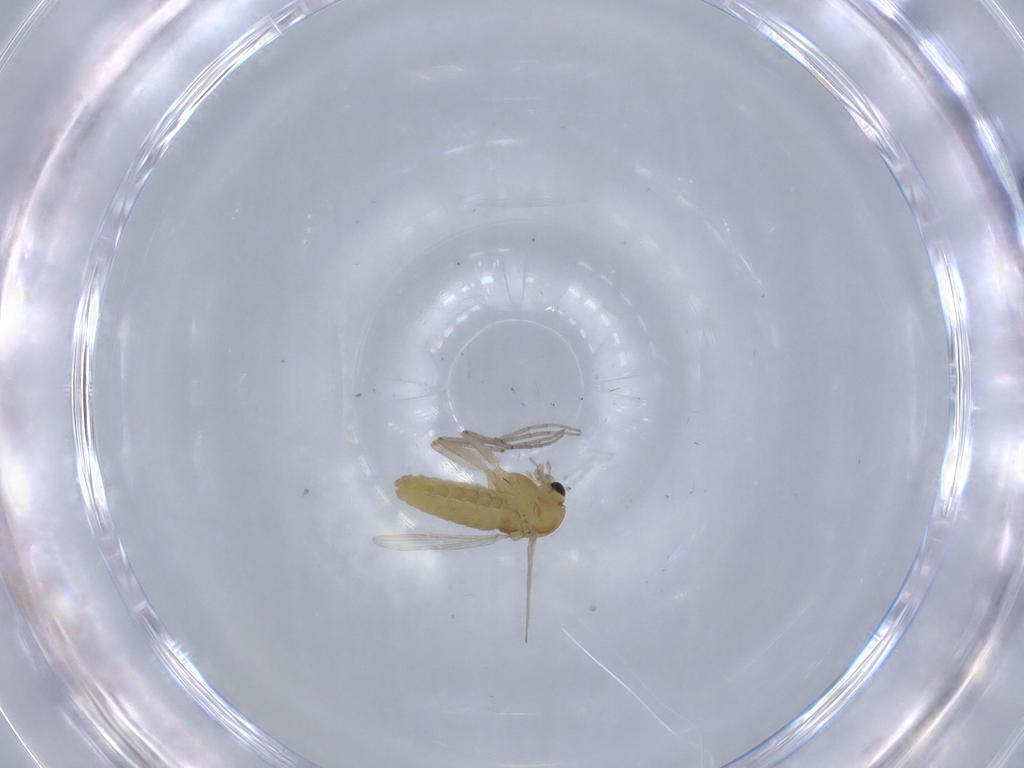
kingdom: Animalia
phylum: Arthropoda
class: Insecta
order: Diptera
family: Chironomidae
